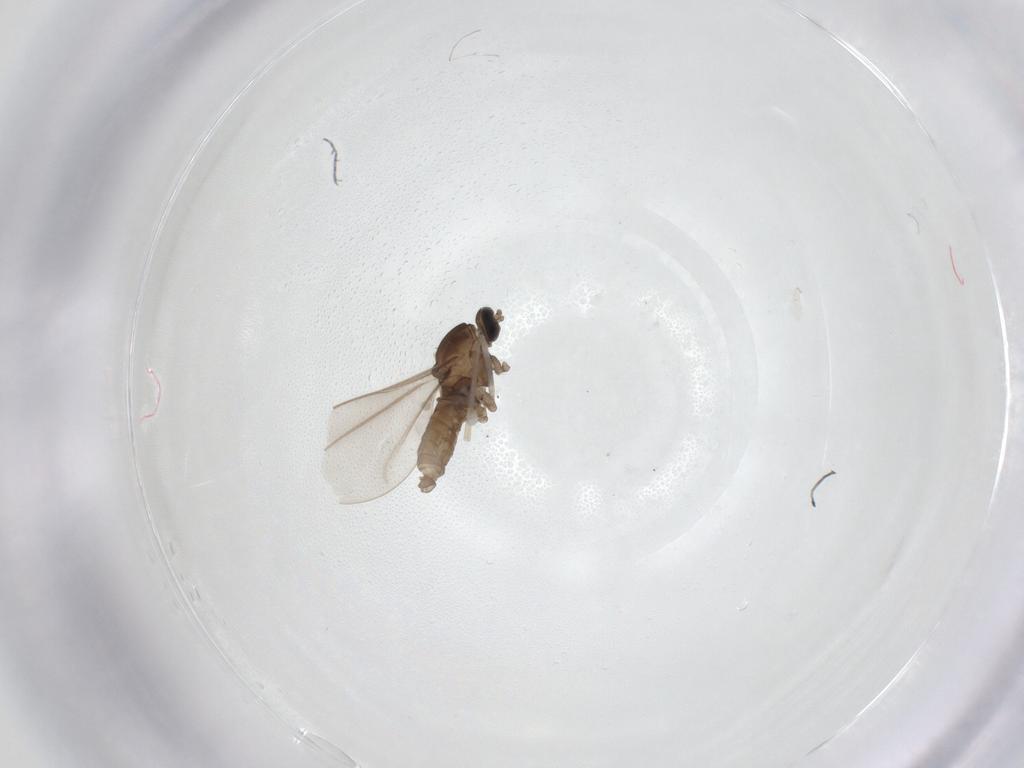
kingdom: Animalia
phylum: Arthropoda
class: Insecta
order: Diptera
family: Cecidomyiidae
